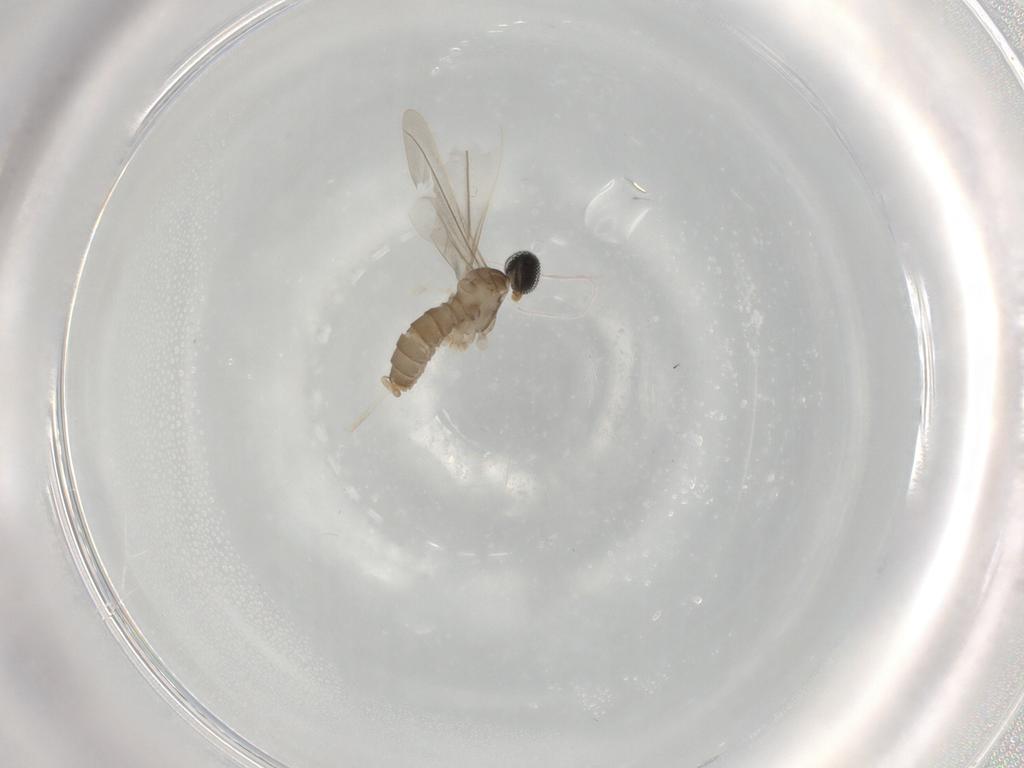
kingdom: Animalia
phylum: Arthropoda
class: Insecta
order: Diptera
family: Cecidomyiidae
